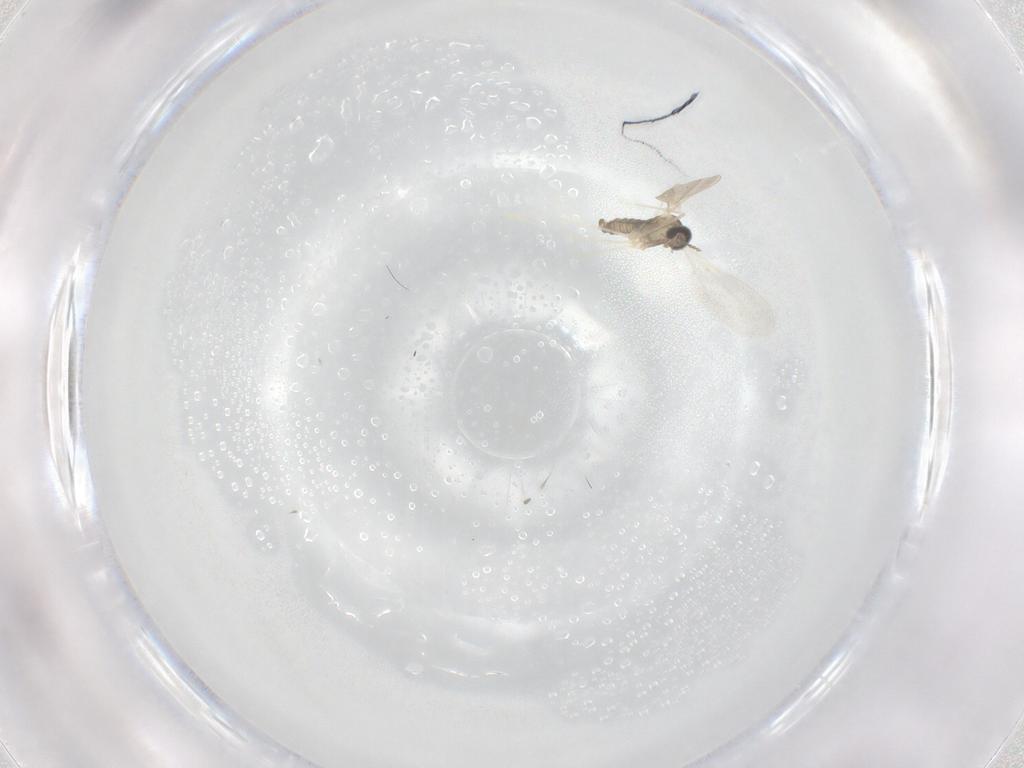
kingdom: Animalia
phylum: Arthropoda
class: Insecta
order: Diptera
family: Cecidomyiidae
